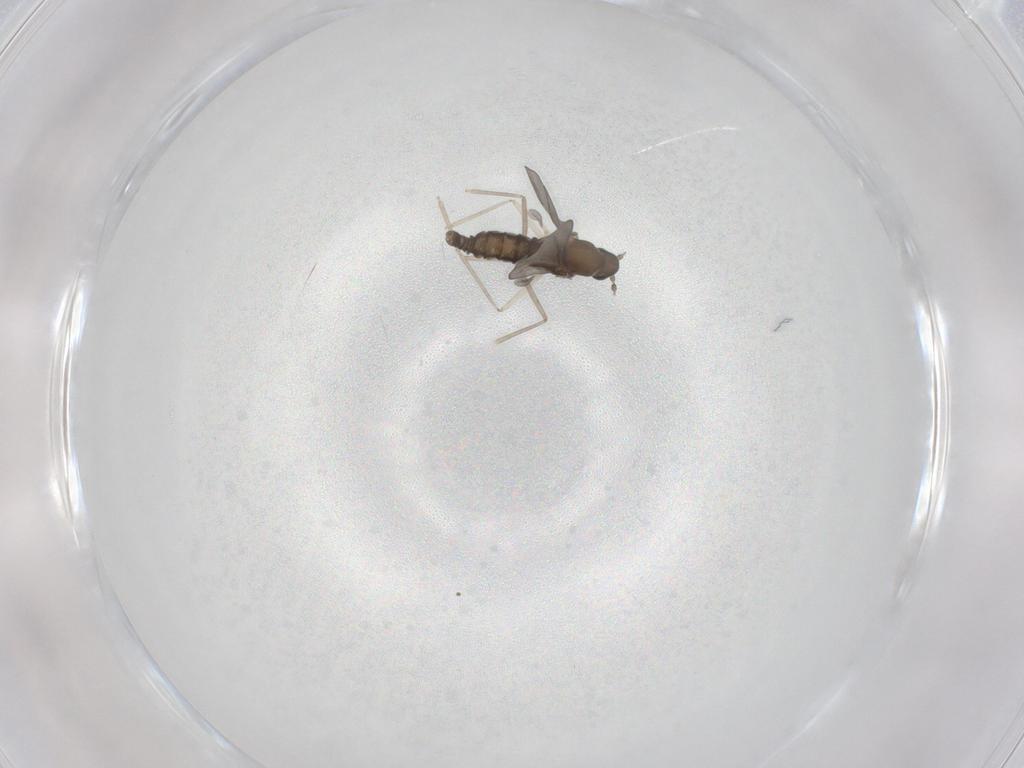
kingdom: Animalia
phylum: Arthropoda
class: Insecta
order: Diptera
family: Cecidomyiidae
